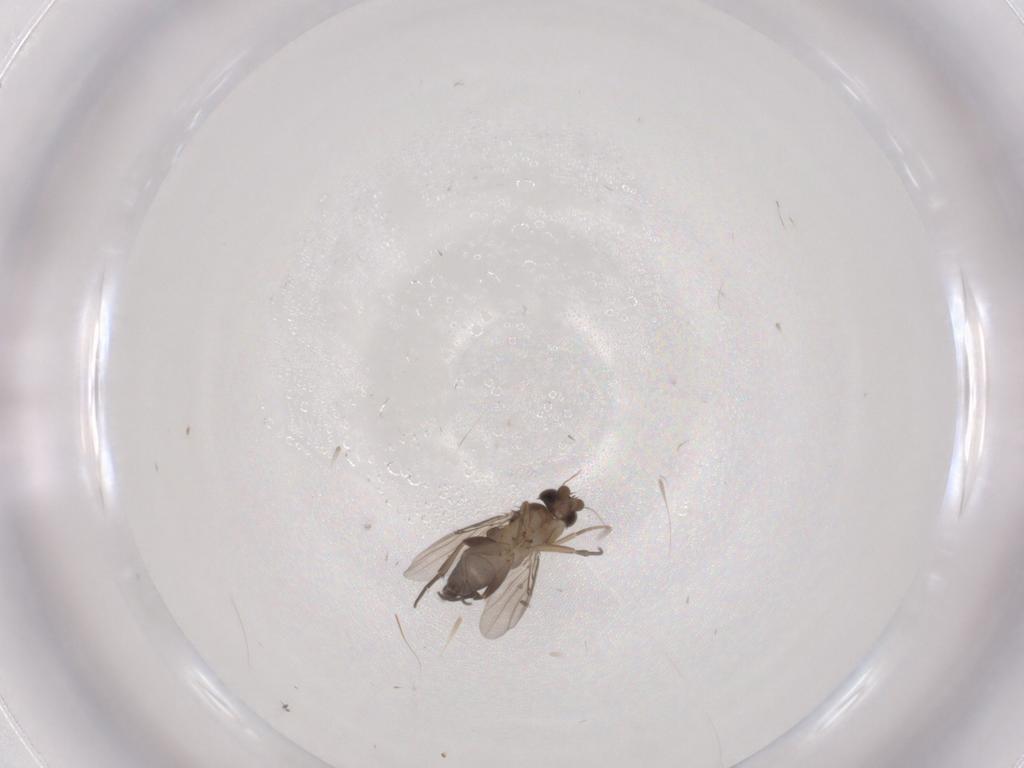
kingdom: Animalia
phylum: Arthropoda
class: Insecta
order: Diptera
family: Phoridae
